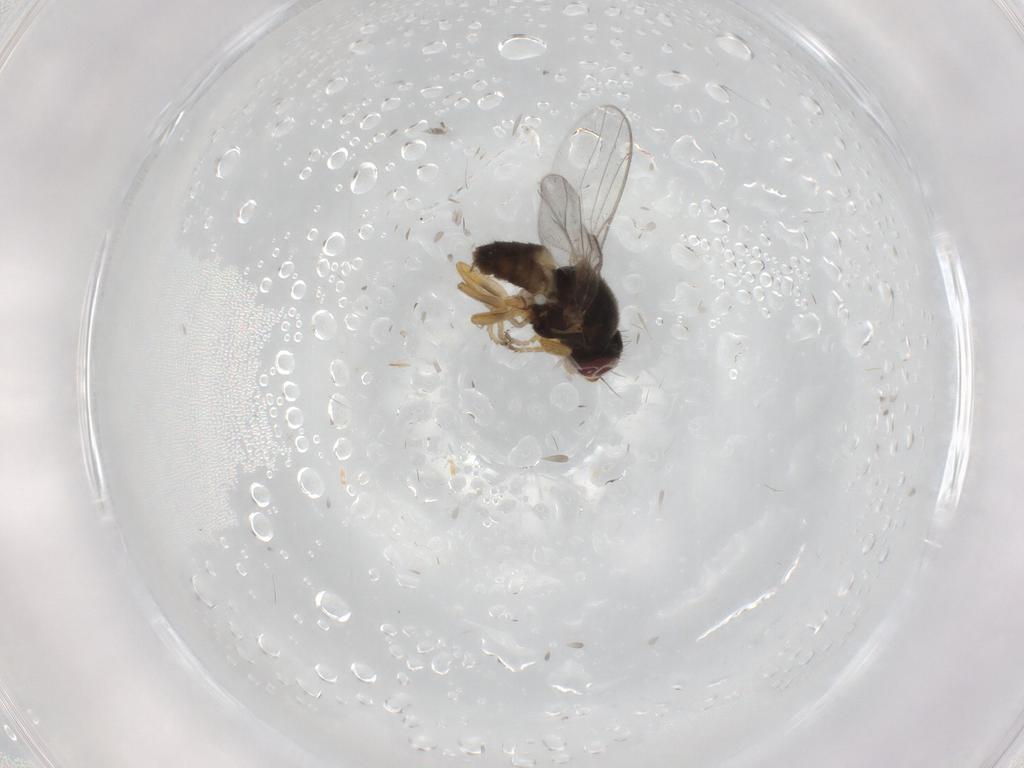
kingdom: Animalia
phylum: Arthropoda
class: Insecta
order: Diptera
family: Chloropidae
